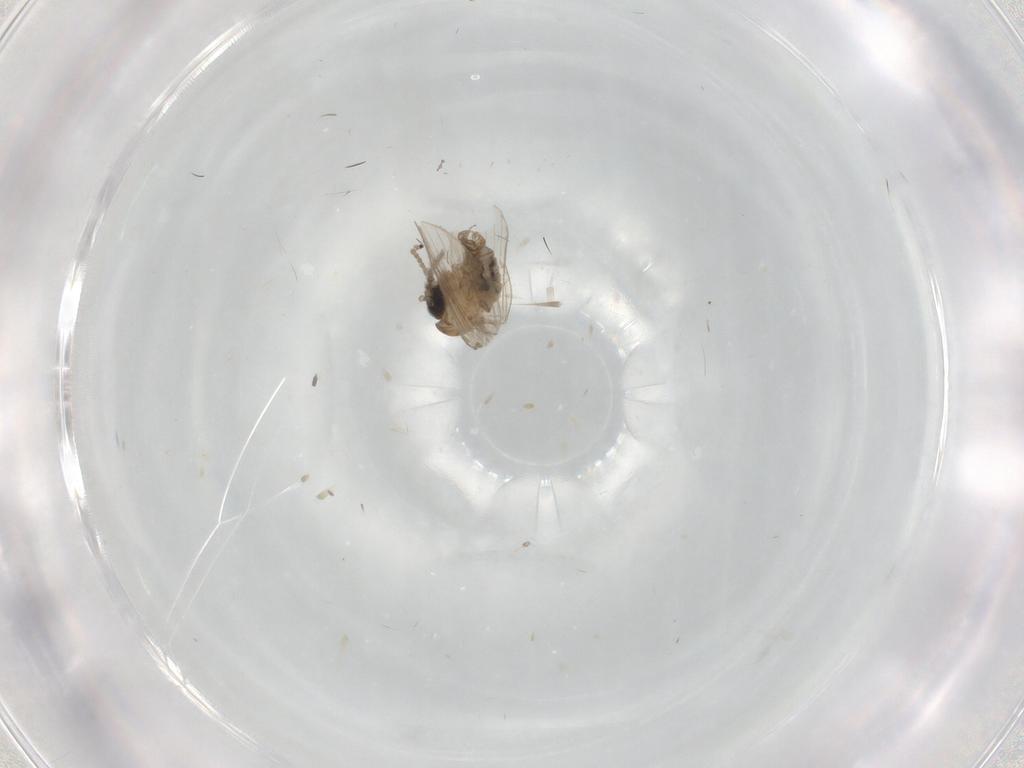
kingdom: Animalia
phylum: Arthropoda
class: Insecta
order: Diptera
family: Psychodidae
